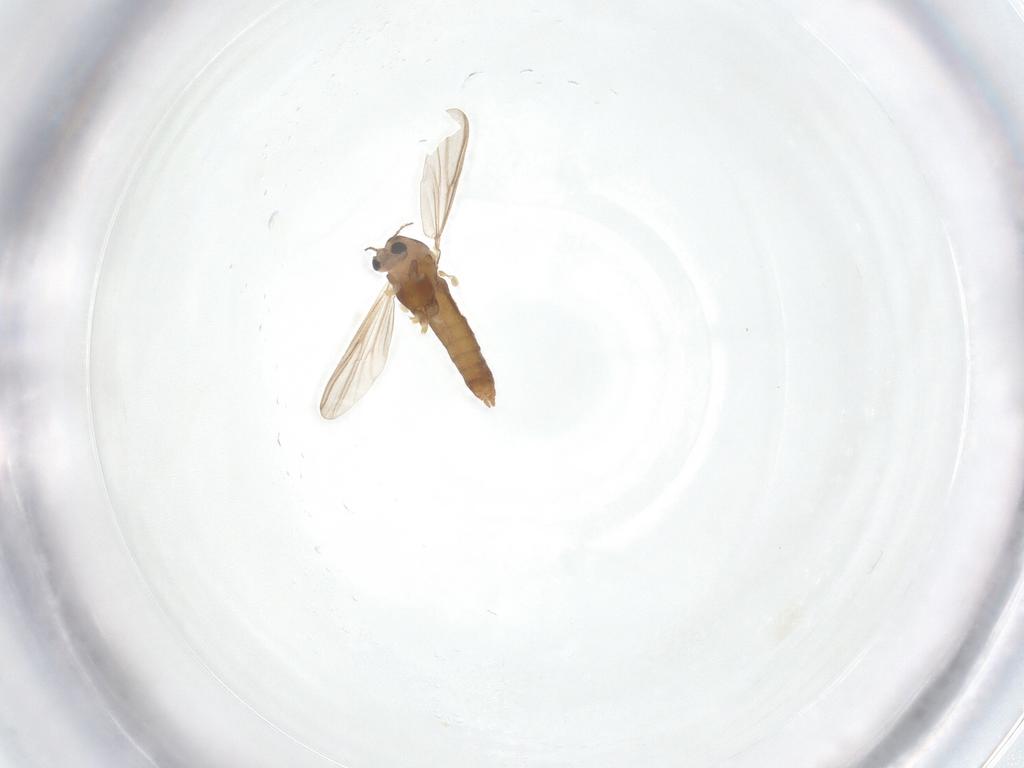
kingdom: Animalia
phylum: Arthropoda
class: Insecta
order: Diptera
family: Chironomidae
